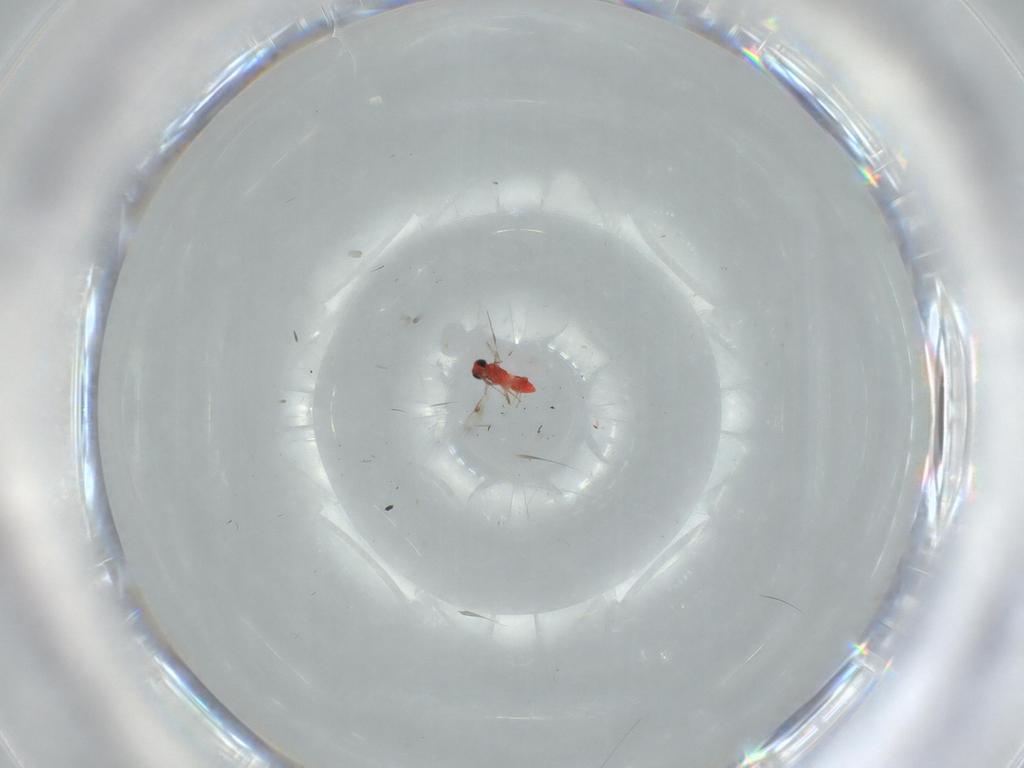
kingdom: Animalia
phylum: Arthropoda
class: Insecta
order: Hymenoptera
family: Trichogrammatidae
